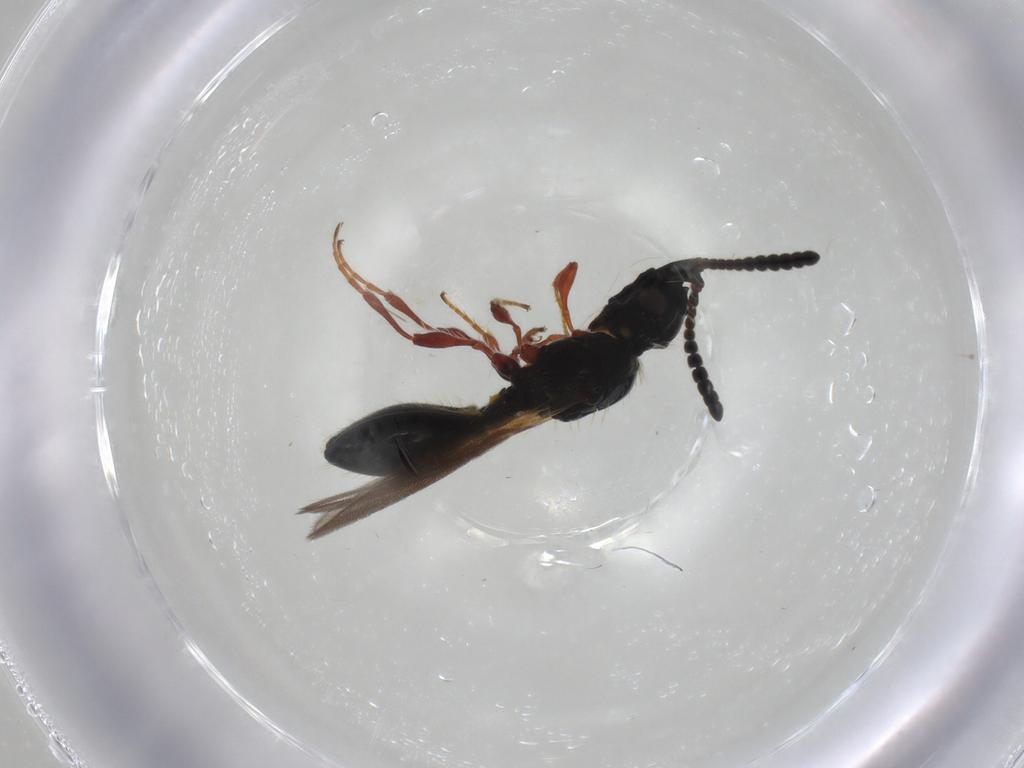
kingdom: Animalia
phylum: Arthropoda
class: Insecta
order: Hymenoptera
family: Diapriidae
